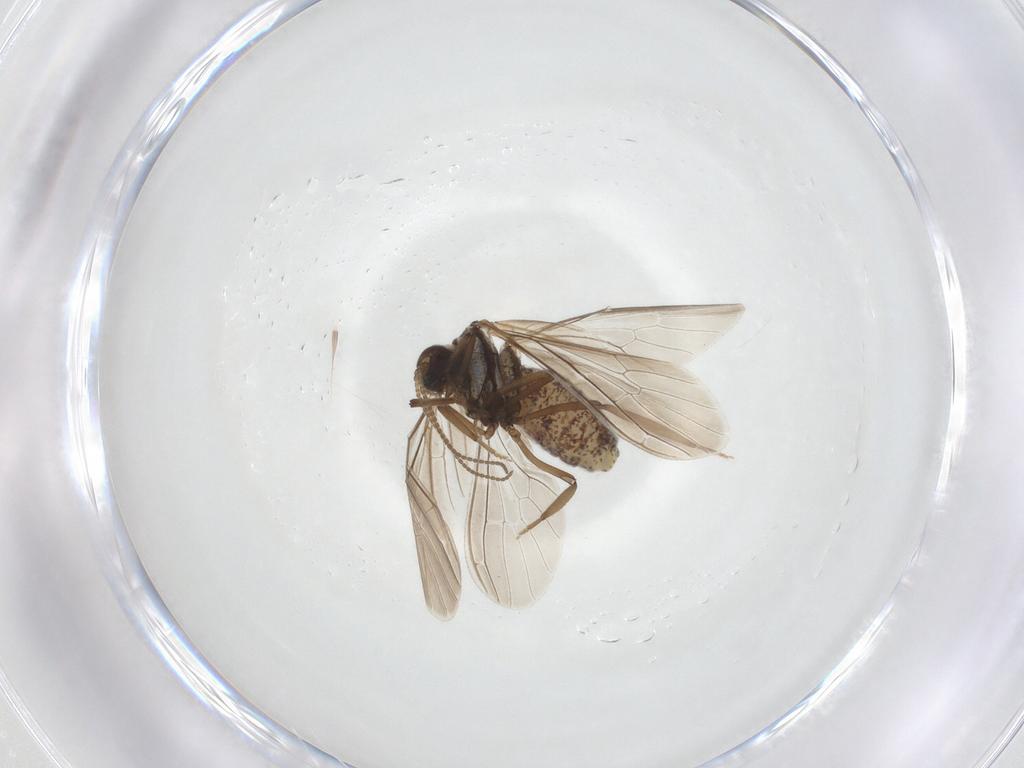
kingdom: Animalia
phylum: Arthropoda
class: Insecta
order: Neuroptera
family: Coniopterygidae
